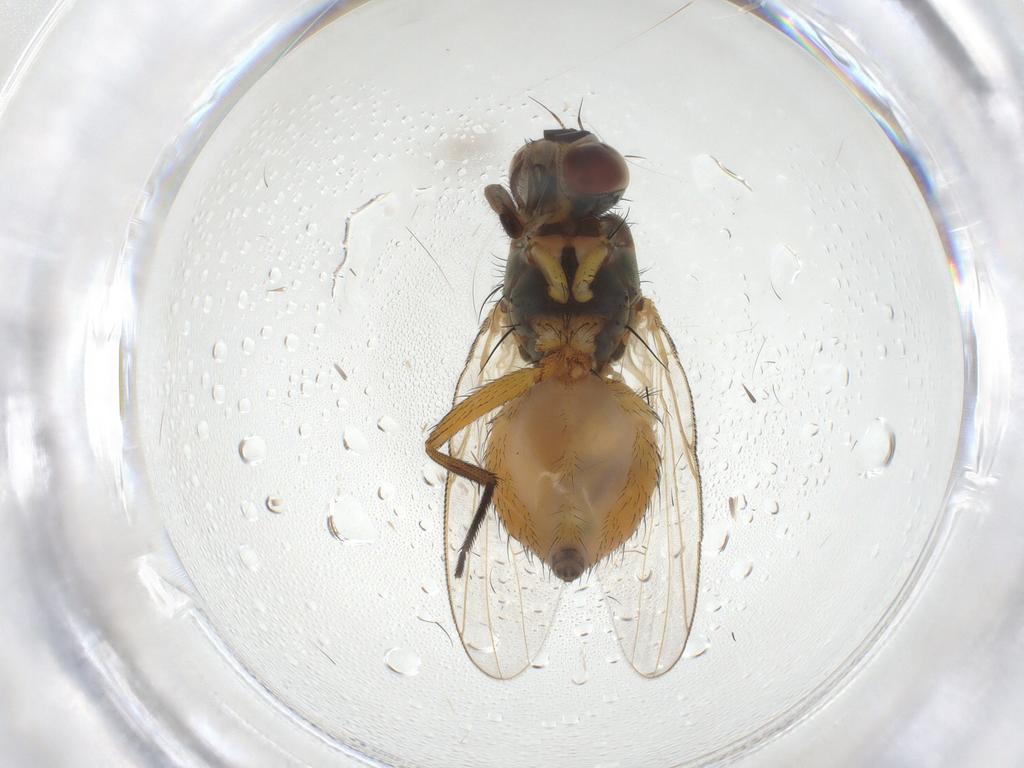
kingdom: Animalia
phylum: Arthropoda
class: Insecta
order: Diptera
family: Muscidae
